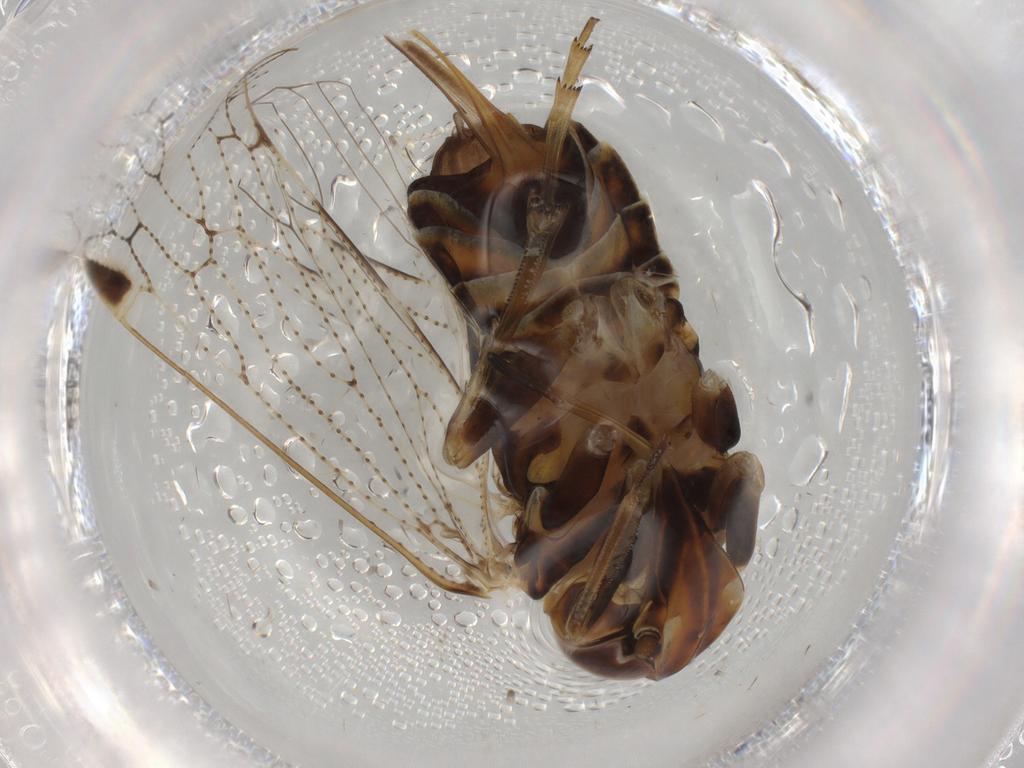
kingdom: Animalia
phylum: Arthropoda
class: Insecta
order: Hemiptera
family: Cixiidae
